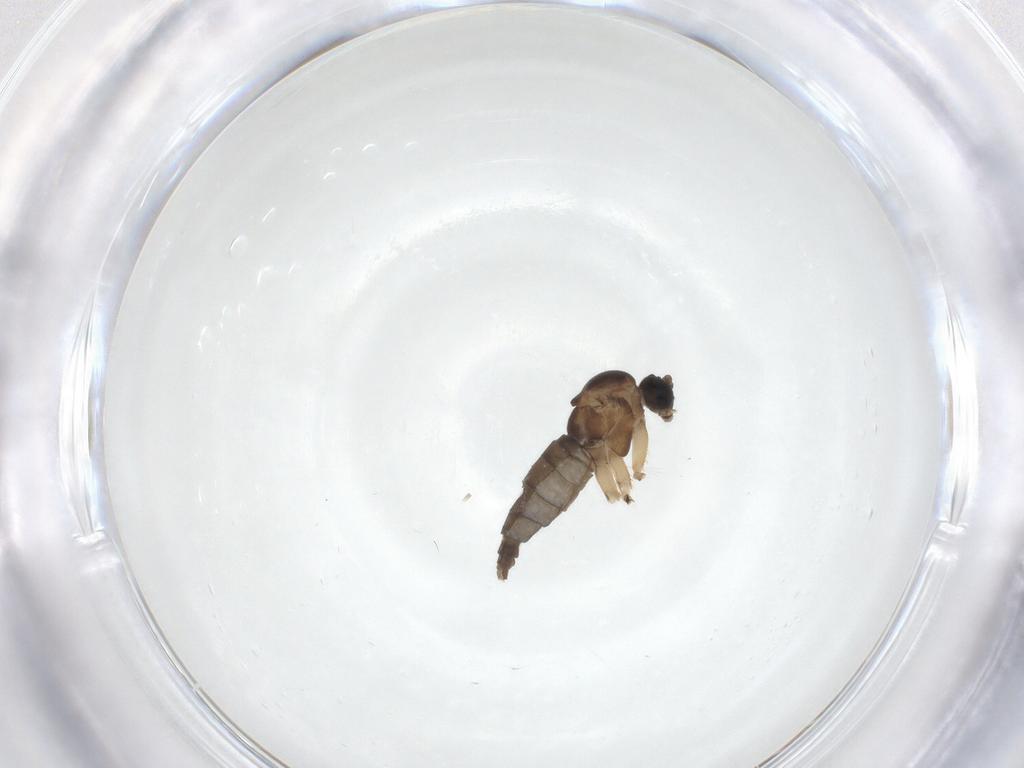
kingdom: Animalia
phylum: Arthropoda
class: Insecta
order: Diptera
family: Sciaridae
